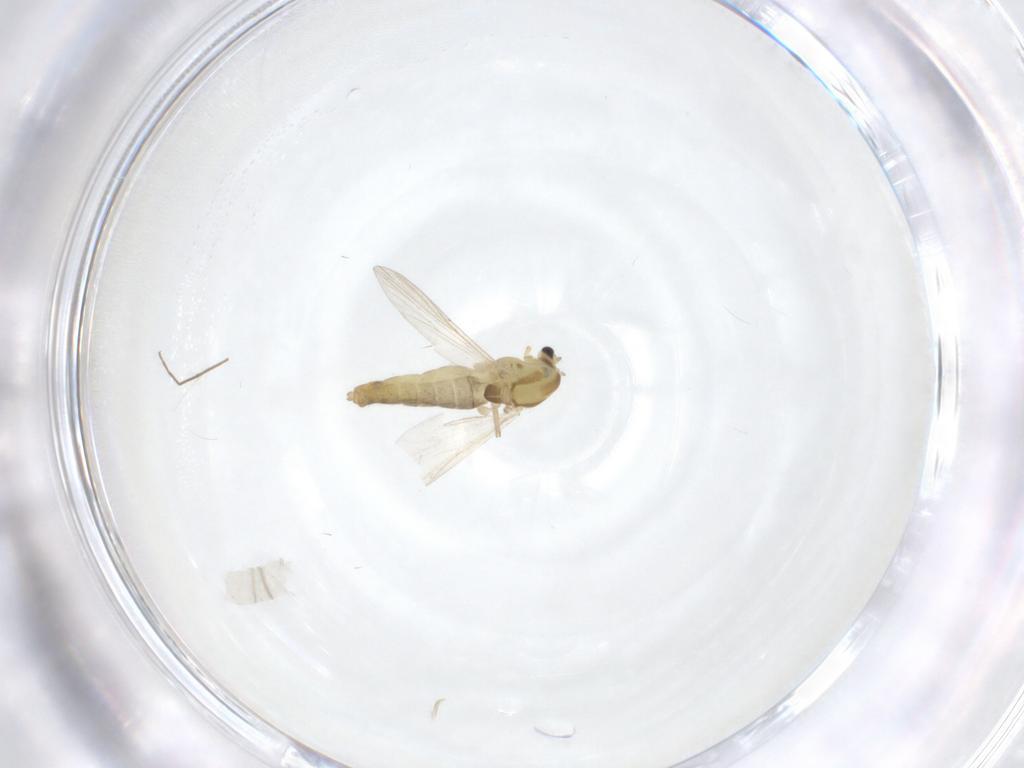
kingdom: Animalia
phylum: Arthropoda
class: Insecta
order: Diptera
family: Chironomidae
